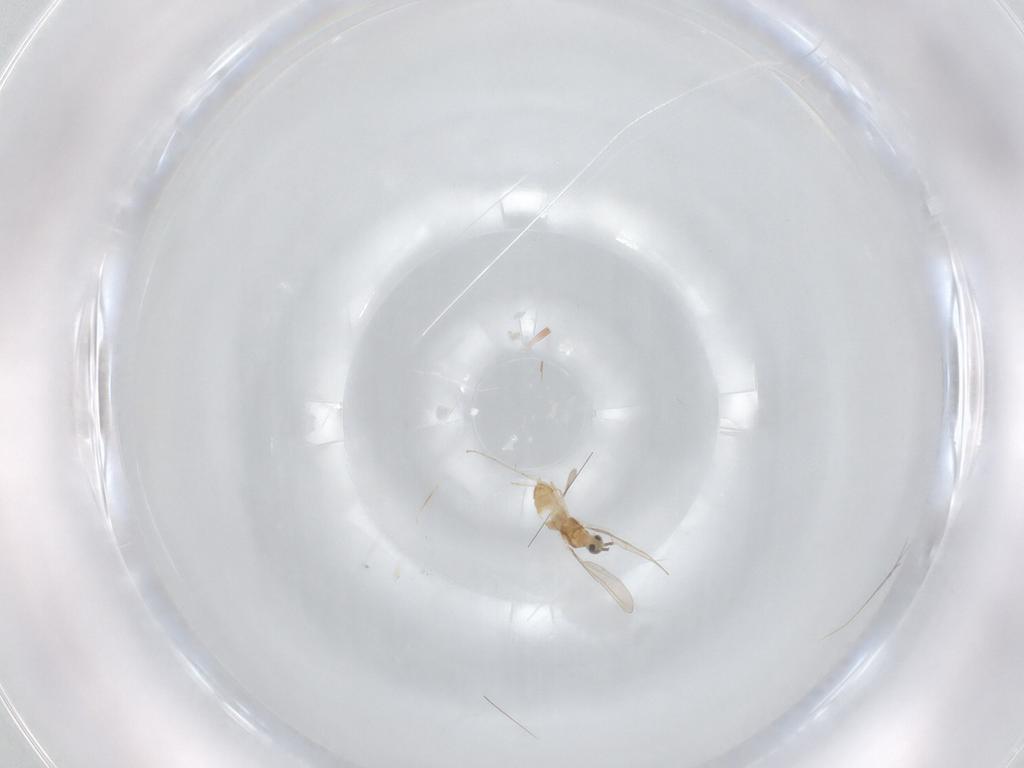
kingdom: Animalia
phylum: Arthropoda
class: Insecta
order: Diptera
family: Cecidomyiidae
